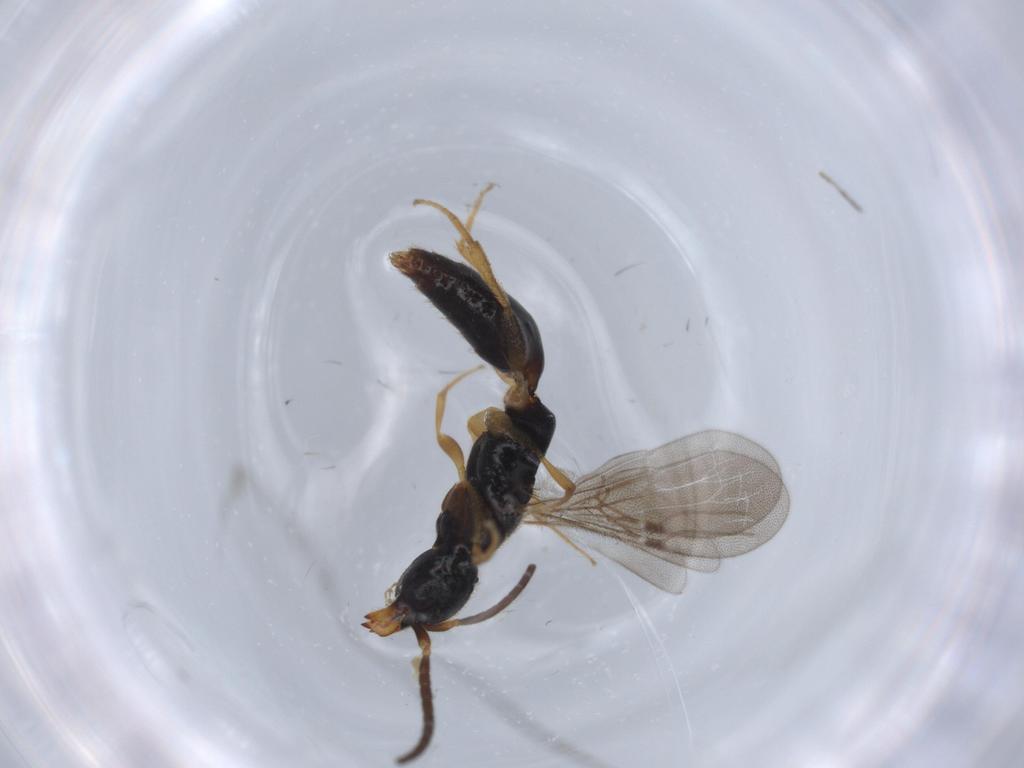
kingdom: Animalia
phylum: Arthropoda
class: Insecta
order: Hymenoptera
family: Bethylidae
